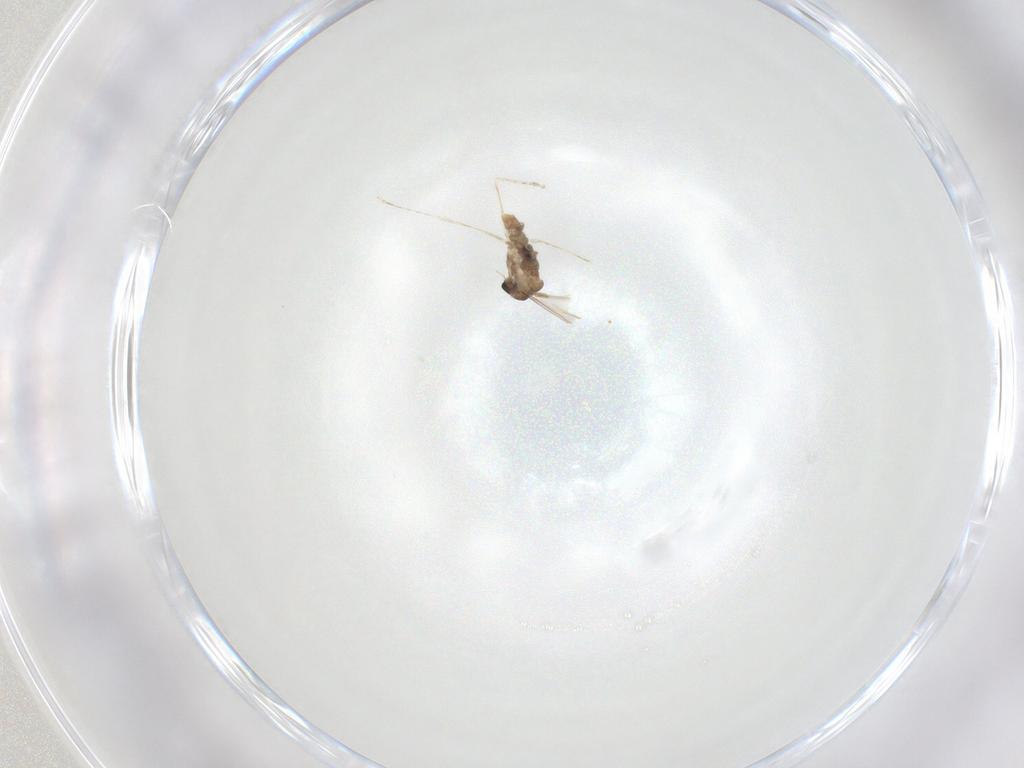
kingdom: Animalia
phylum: Arthropoda
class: Insecta
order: Diptera
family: Cecidomyiidae
